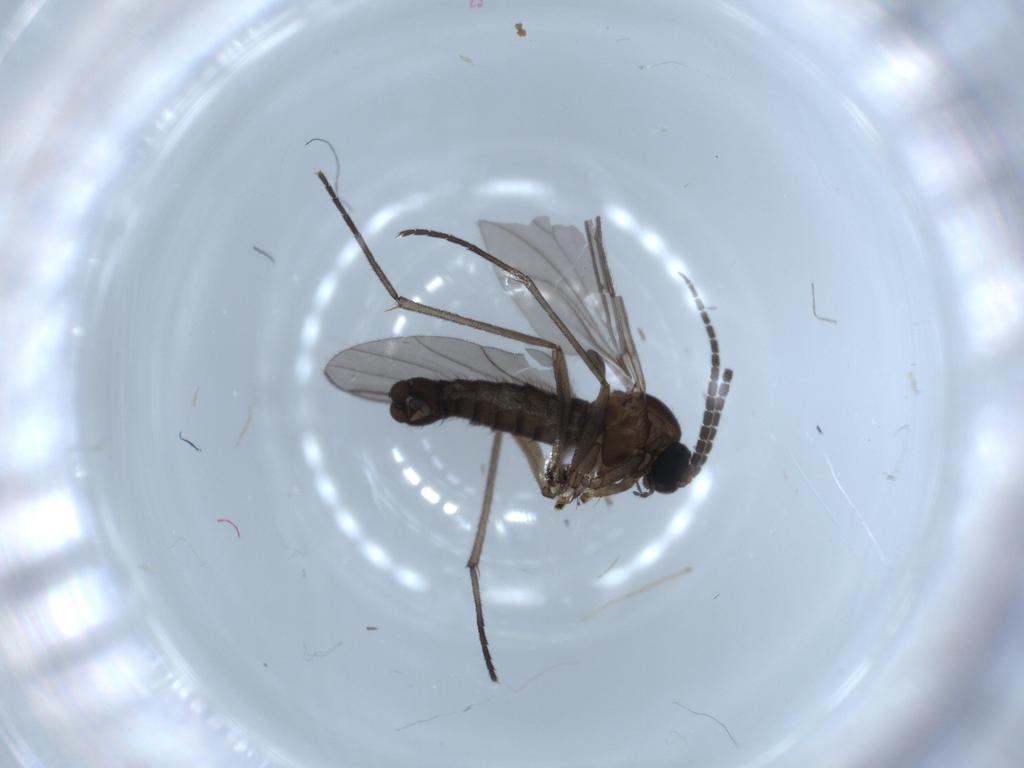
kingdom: Animalia
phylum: Arthropoda
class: Insecta
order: Diptera
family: Sciaridae
